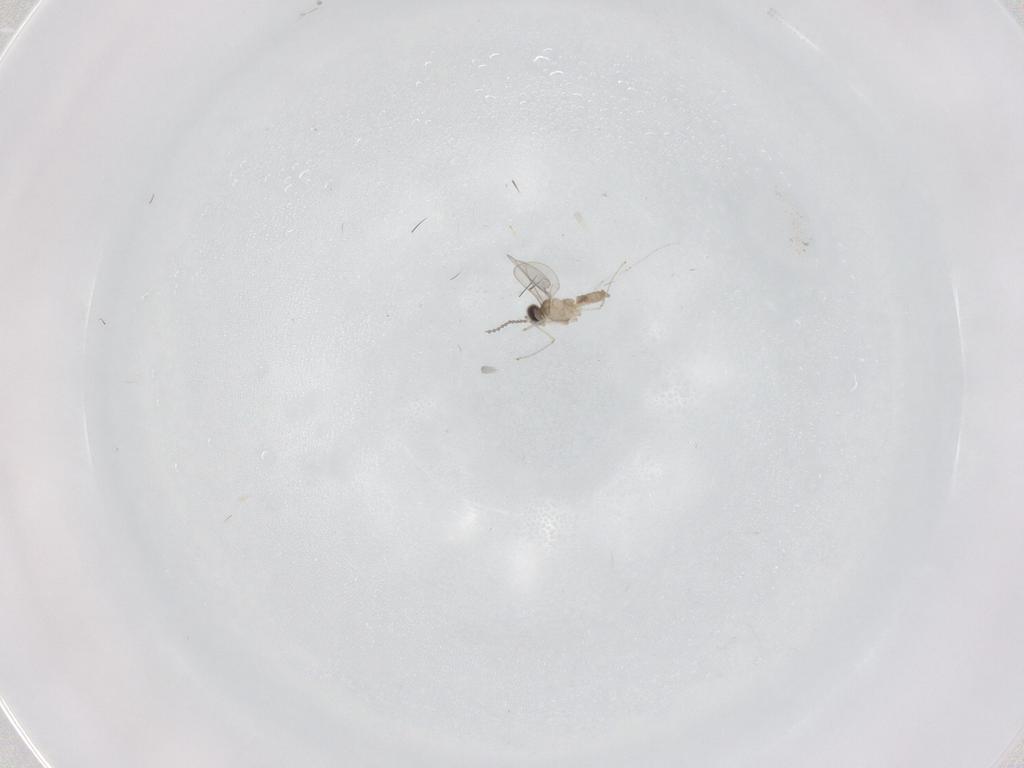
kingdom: Animalia
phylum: Arthropoda
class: Insecta
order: Diptera
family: Cecidomyiidae
